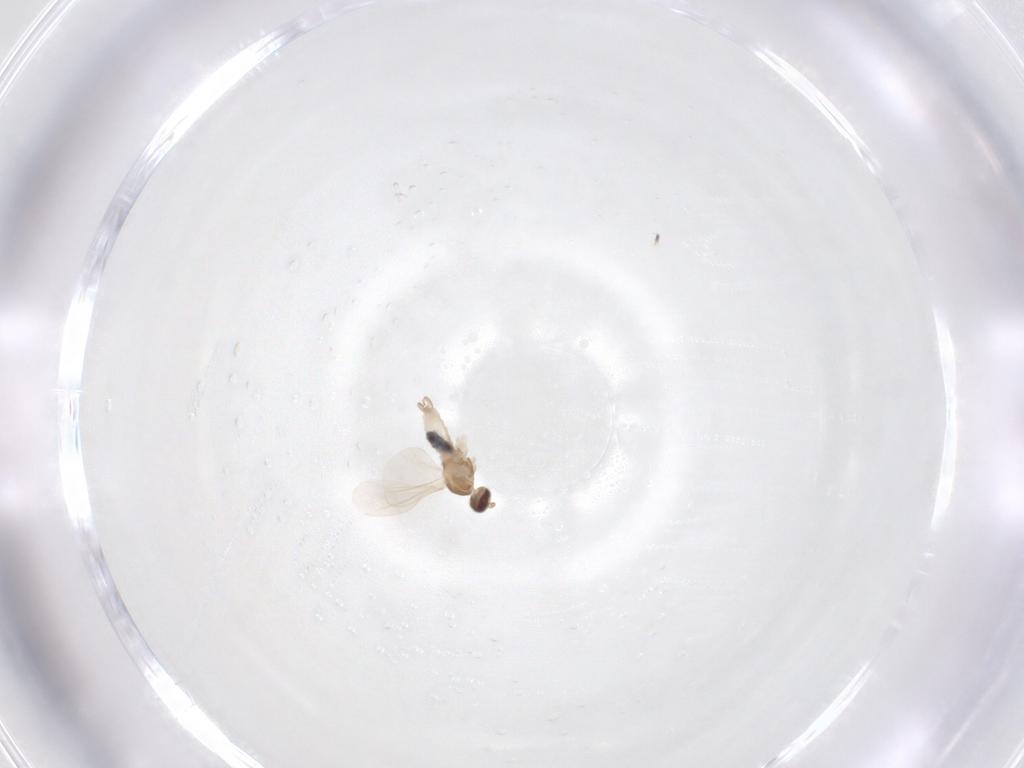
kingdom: Animalia
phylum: Arthropoda
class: Insecta
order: Diptera
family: Cecidomyiidae
